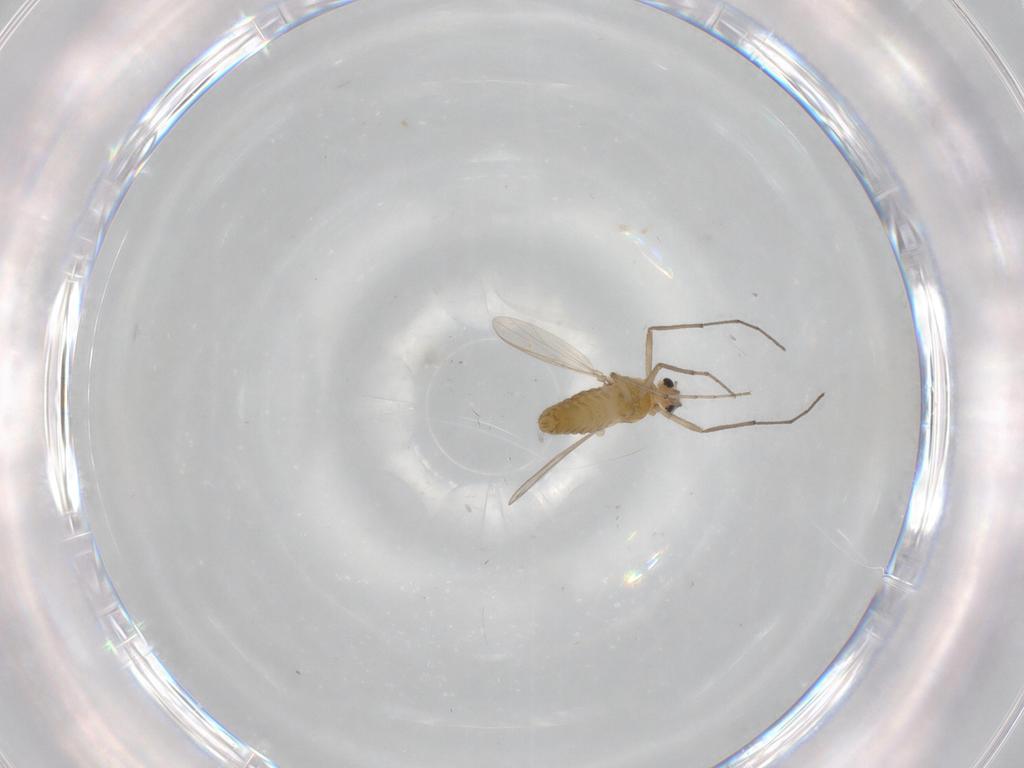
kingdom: Animalia
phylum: Arthropoda
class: Insecta
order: Diptera
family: Chironomidae
